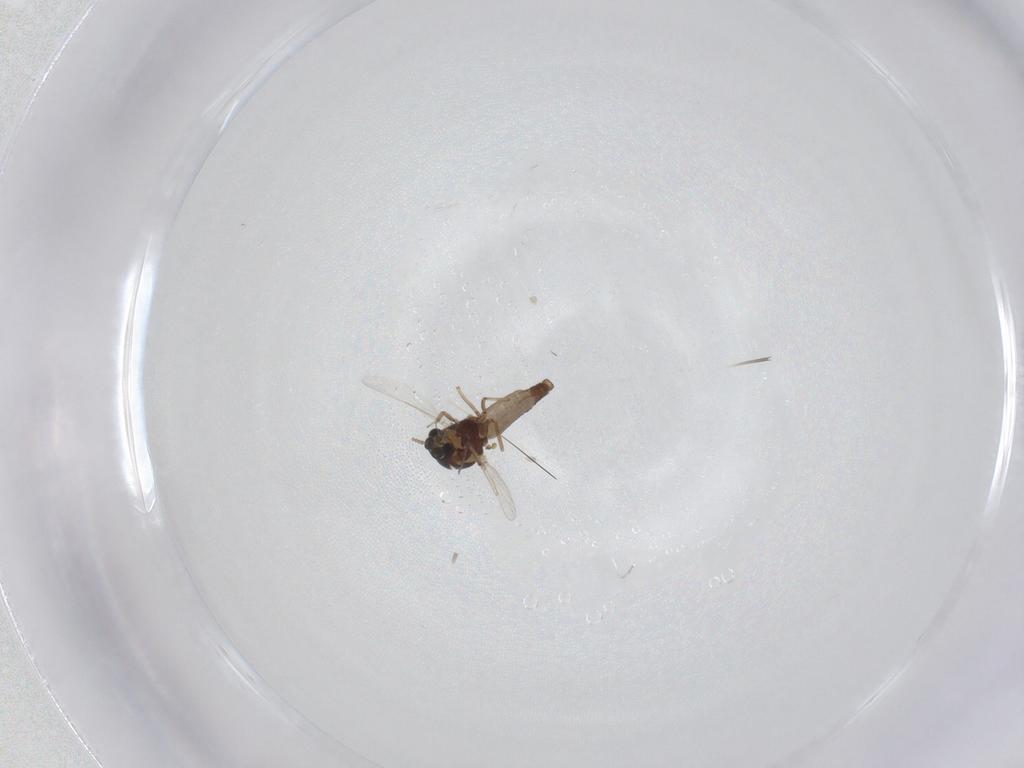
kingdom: Animalia
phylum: Arthropoda
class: Insecta
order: Diptera
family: Ceratopogonidae
